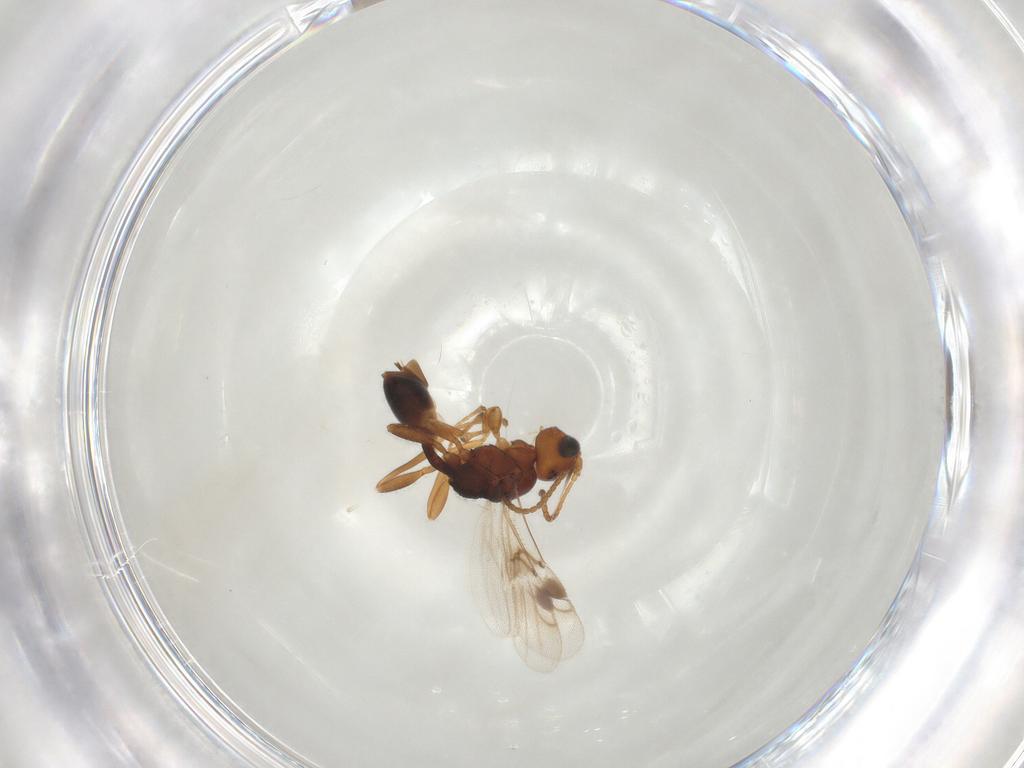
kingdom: Animalia
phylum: Arthropoda
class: Insecta
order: Hymenoptera
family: Braconidae
